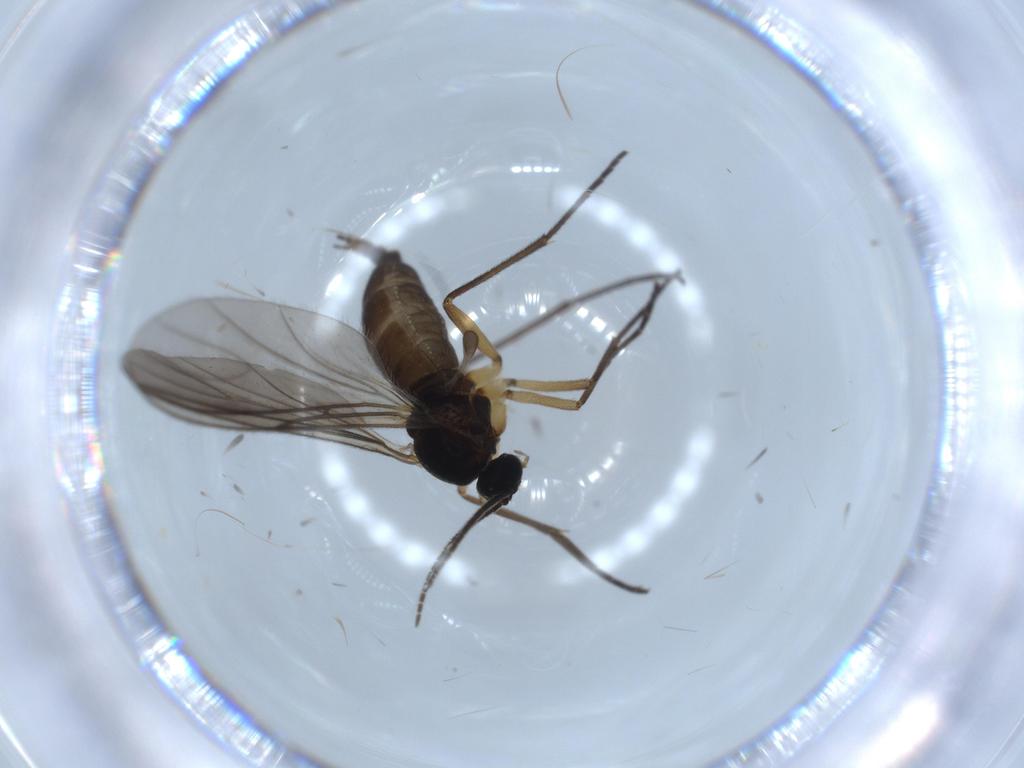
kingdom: Animalia
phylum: Arthropoda
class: Insecta
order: Diptera
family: Sciaridae
